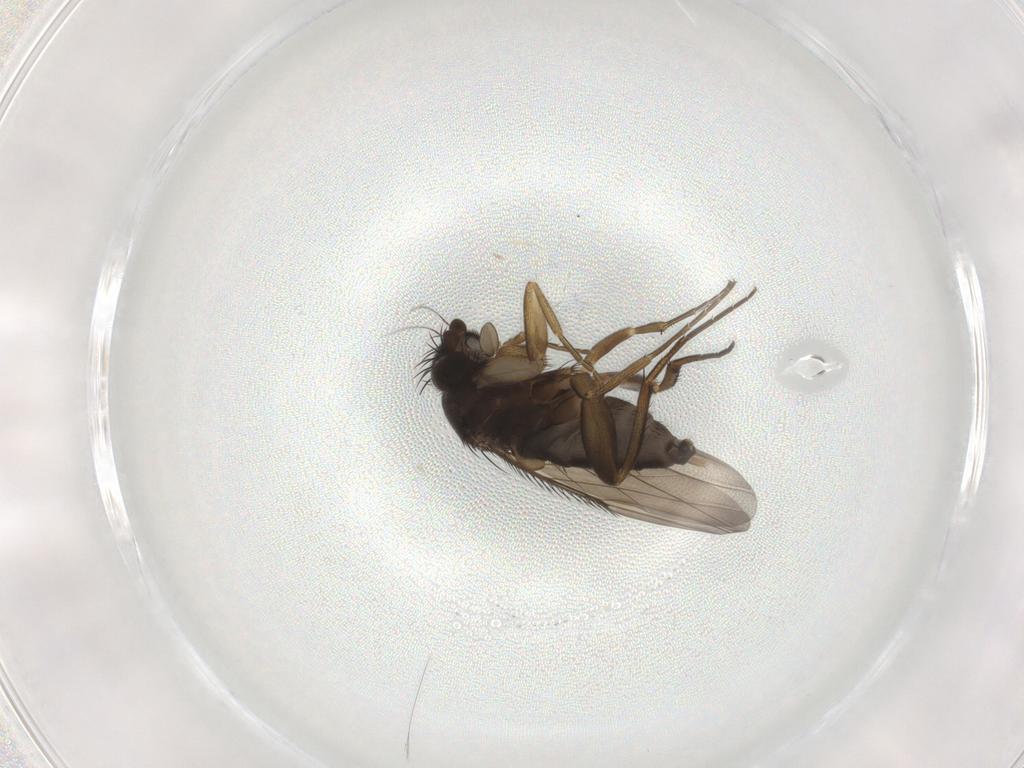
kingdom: Animalia
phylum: Arthropoda
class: Insecta
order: Diptera
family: Phoridae
